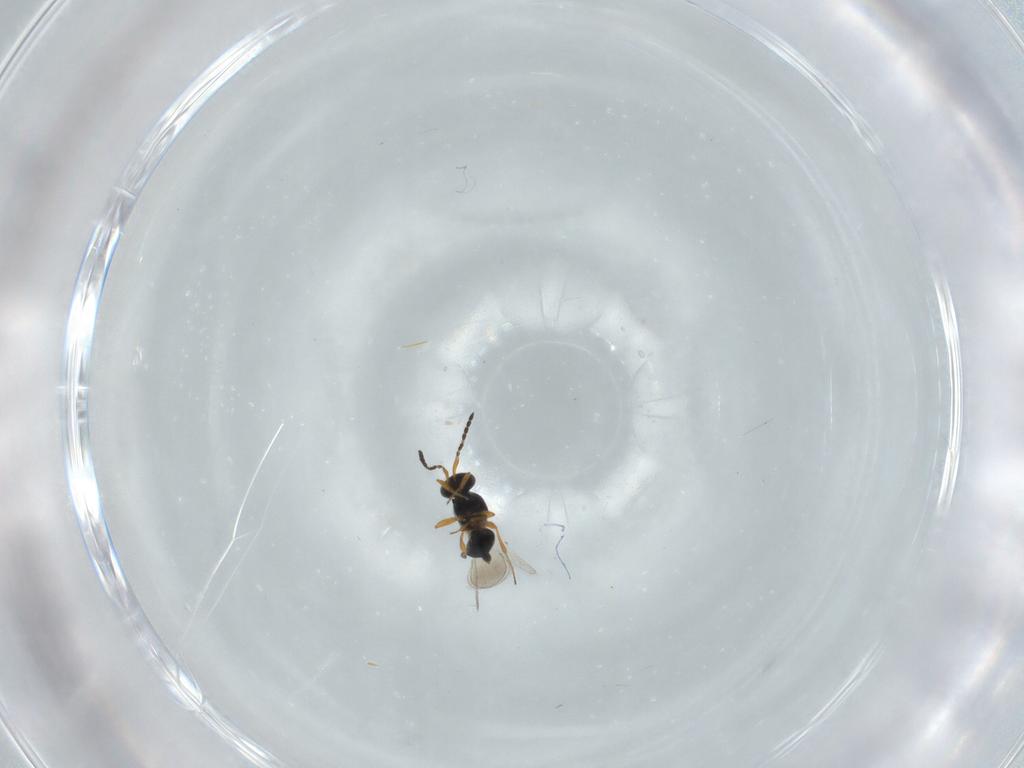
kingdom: Animalia
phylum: Arthropoda
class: Insecta
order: Hymenoptera
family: Platygastridae
